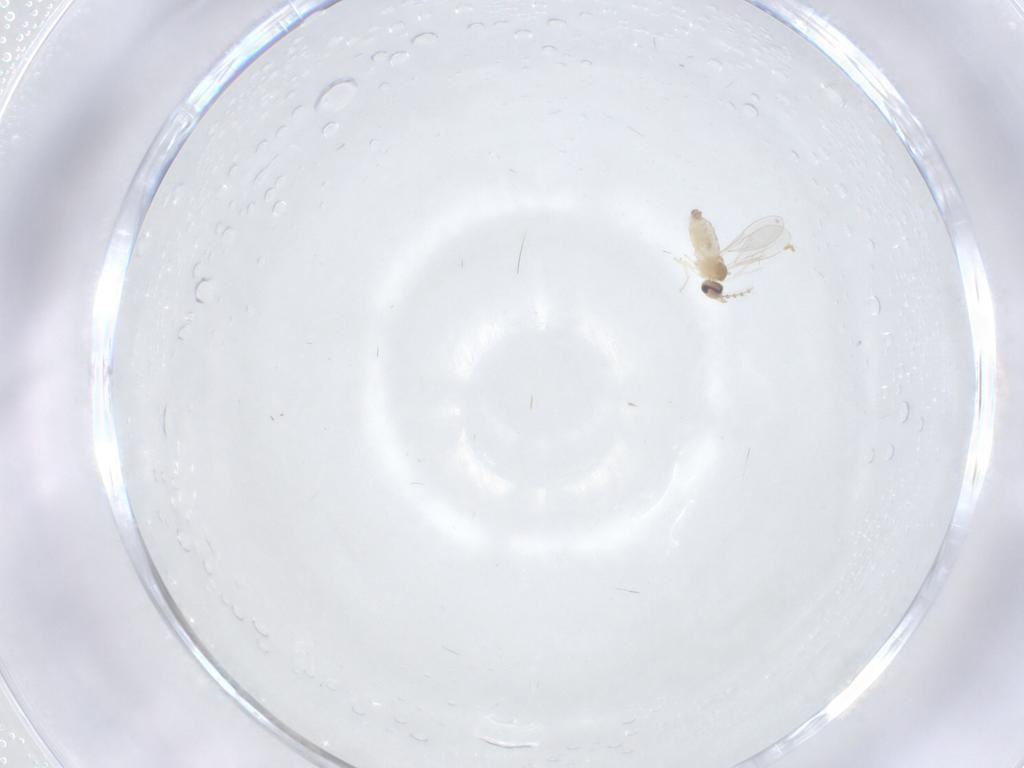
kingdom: Animalia
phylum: Arthropoda
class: Insecta
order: Diptera
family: Cecidomyiidae
